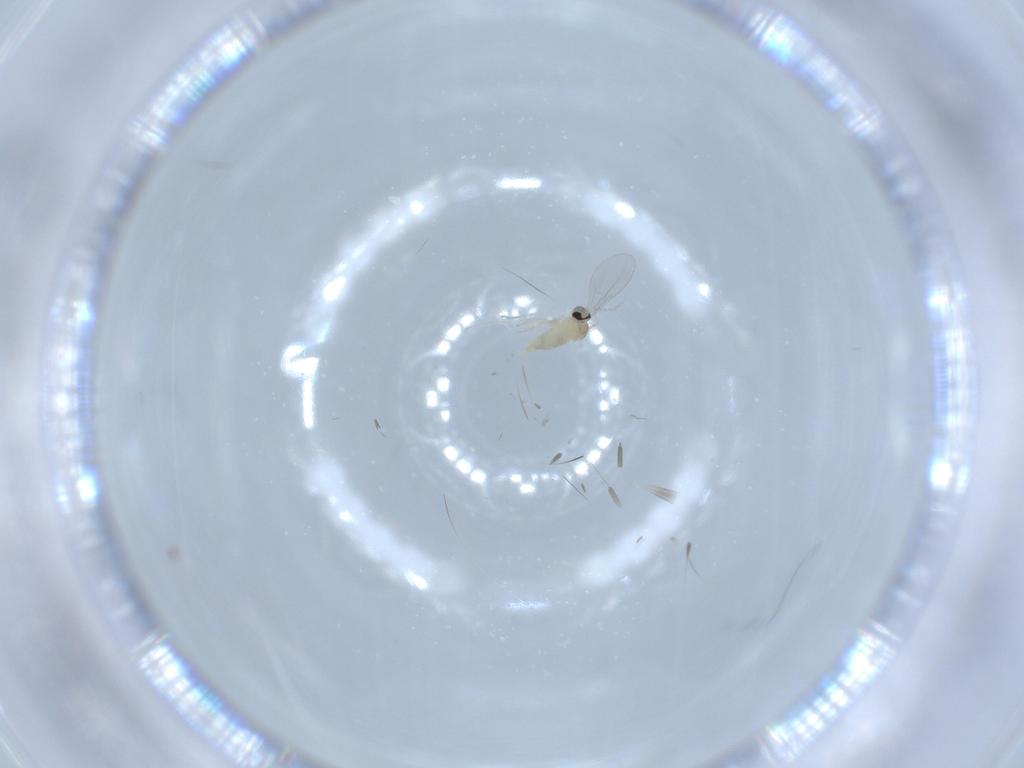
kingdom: Animalia
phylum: Arthropoda
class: Insecta
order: Diptera
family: Cecidomyiidae
